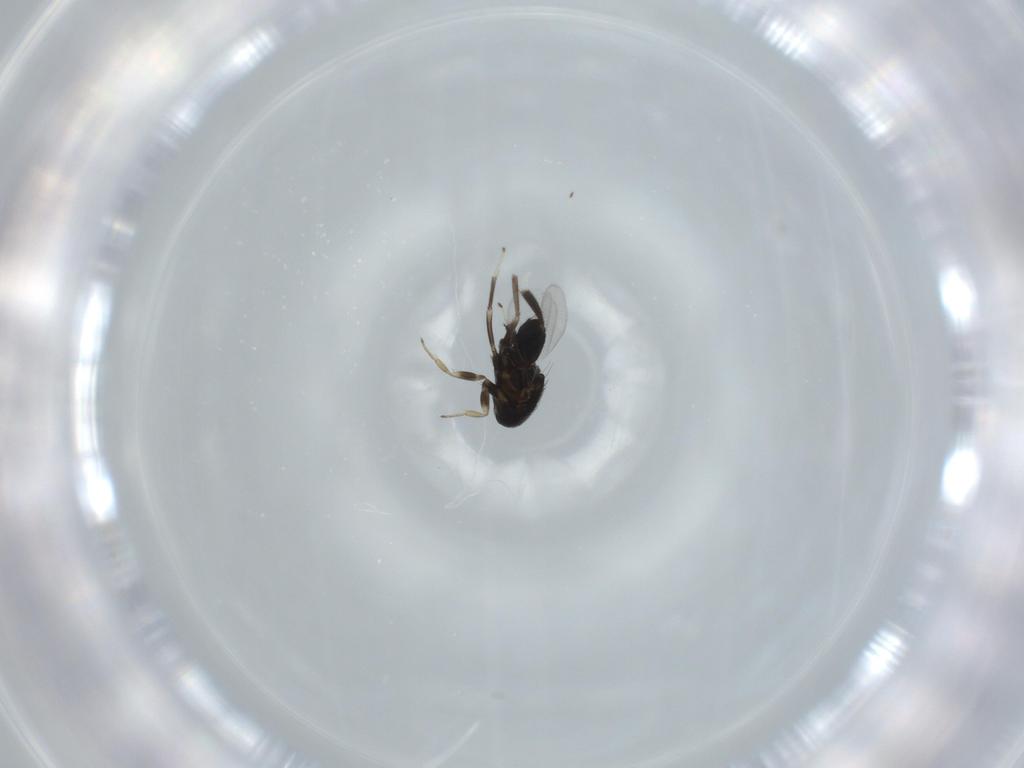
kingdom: Animalia
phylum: Arthropoda
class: Insecta
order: Hymenoptera
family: Aphelinidae
